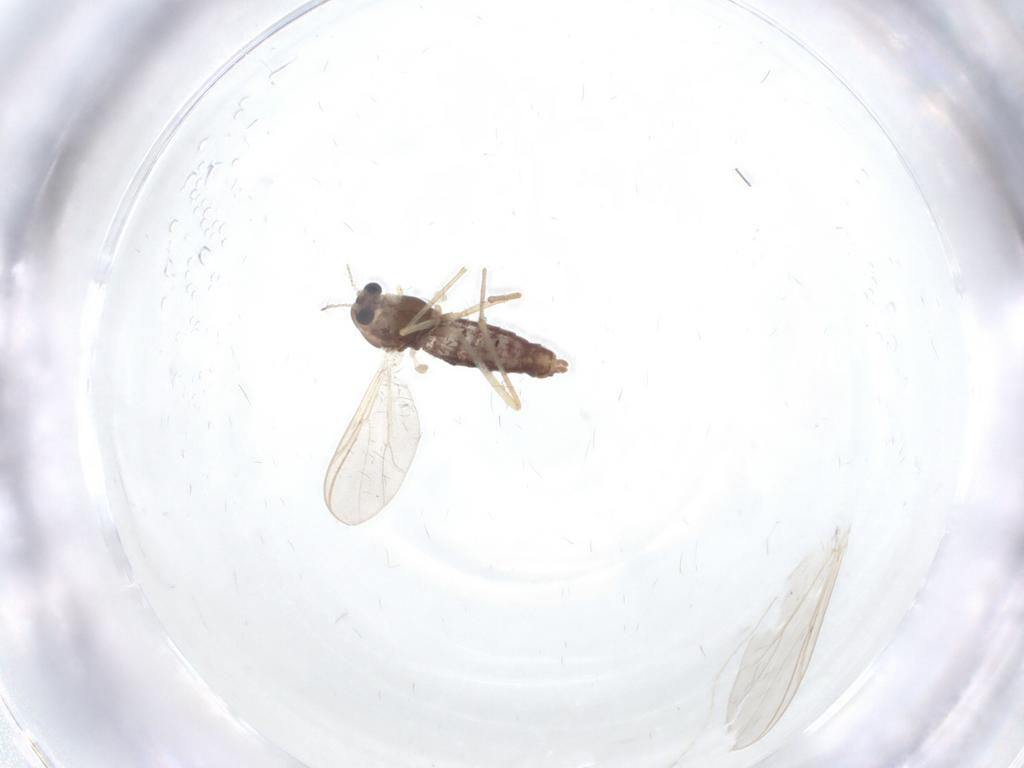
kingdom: Animalia
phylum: Arthropoda
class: Insecta
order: Diptera
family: Chironomidae
